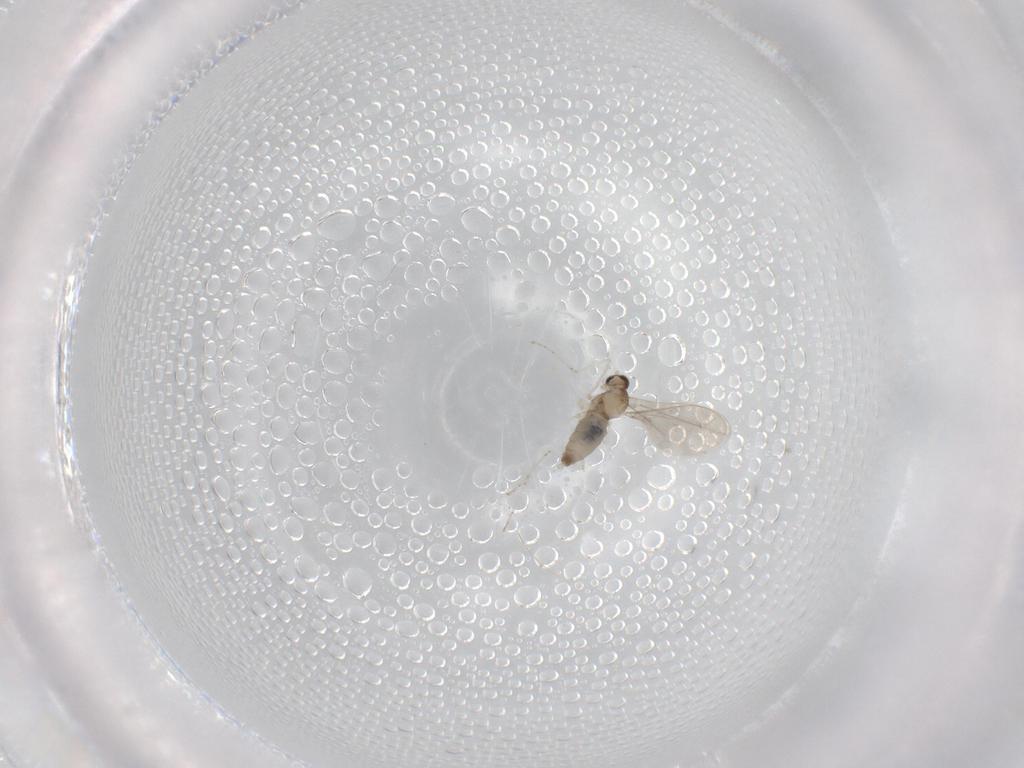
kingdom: Animalia
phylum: Arthropoda
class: Insecta
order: Diptera
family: Cecidomyiidae
